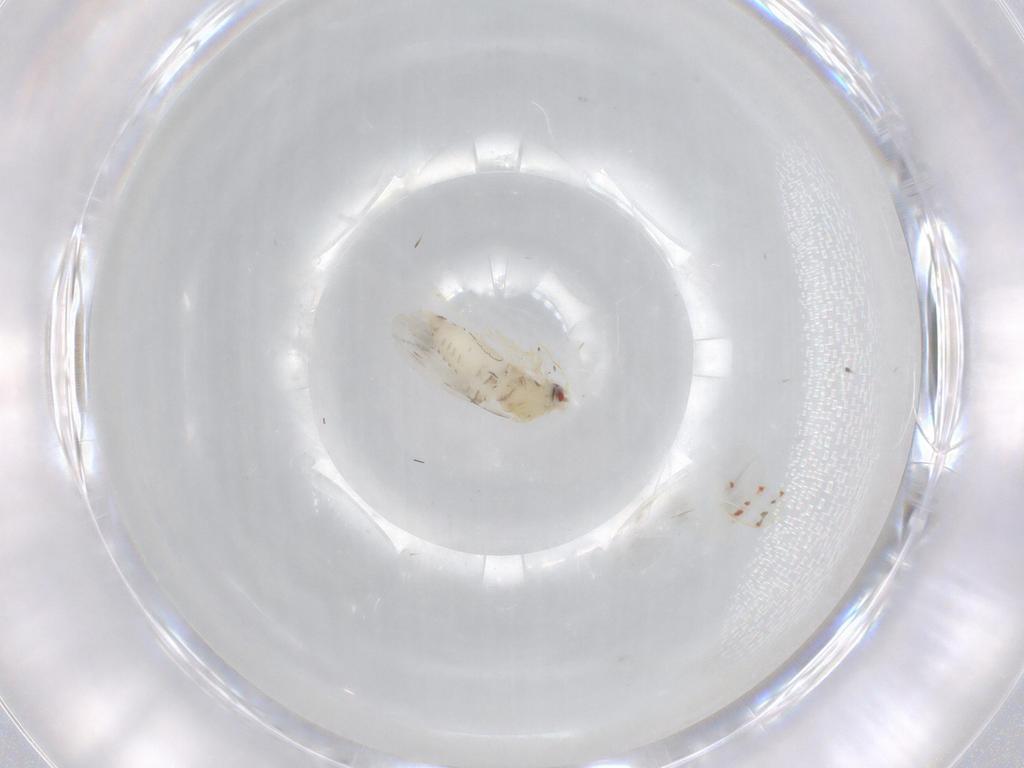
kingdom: Animalia
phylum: Arthropoda
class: Insecta
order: Hemiptera
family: Aleyrodidae
